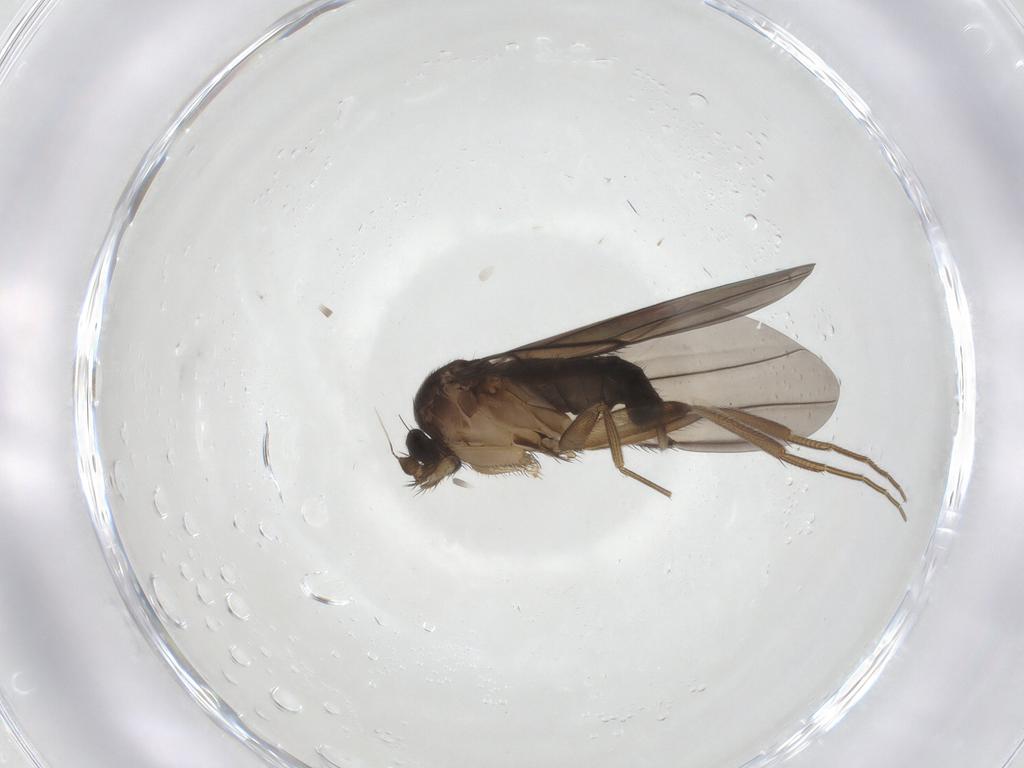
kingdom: Animalia
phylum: Arthropoda
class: Insecta
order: Diptera
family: Phoridae
